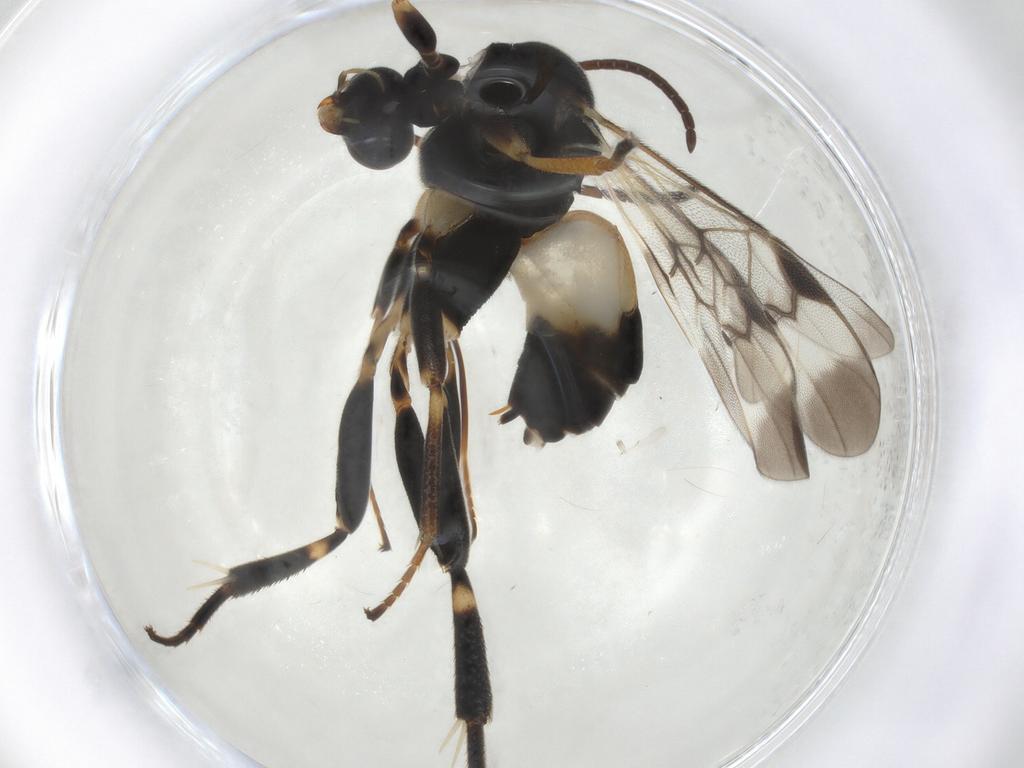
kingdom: Animalia
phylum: Arthropoda
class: Insecta
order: Hymenoptera
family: Braconidae
